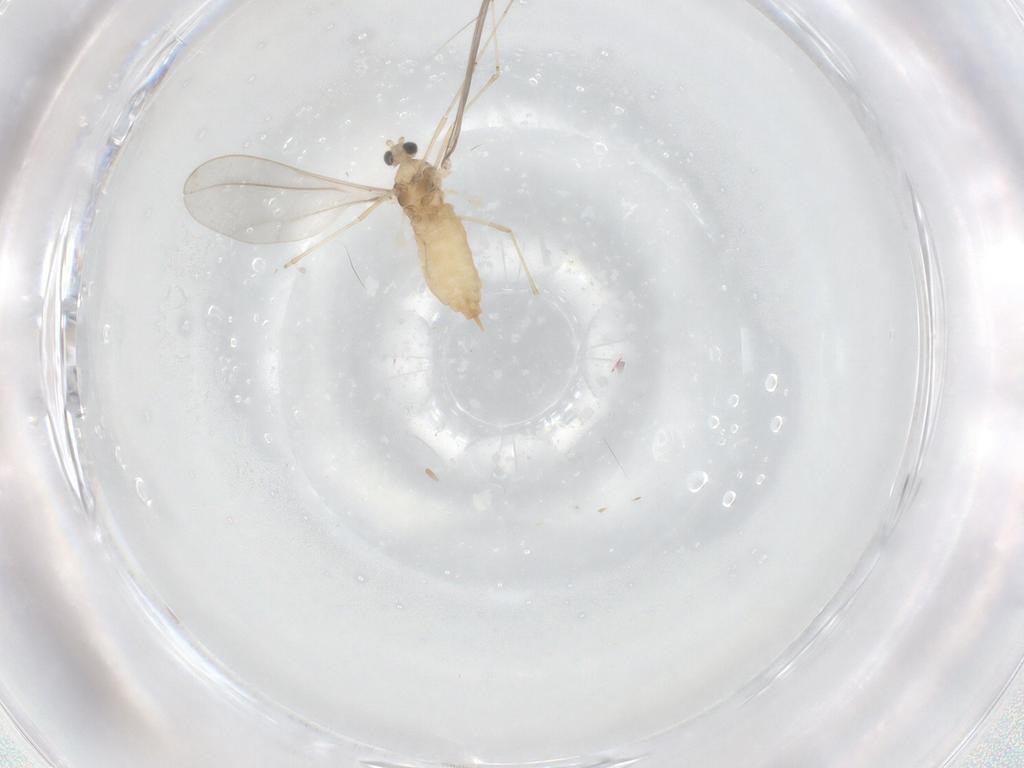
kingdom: Animalia
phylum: Arthropoda
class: Insecta
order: Diptera
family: Cecidomyiidae
